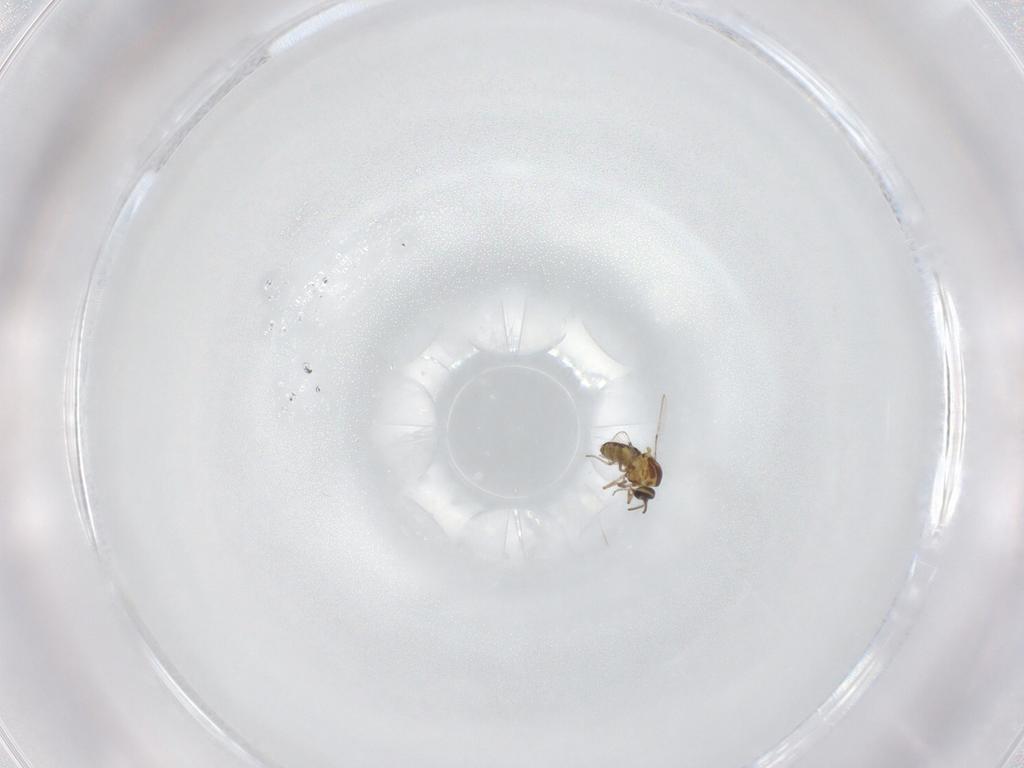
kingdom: Animalia
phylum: Arthropoda
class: Insecta
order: Diptera
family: Ceratopogonidae
